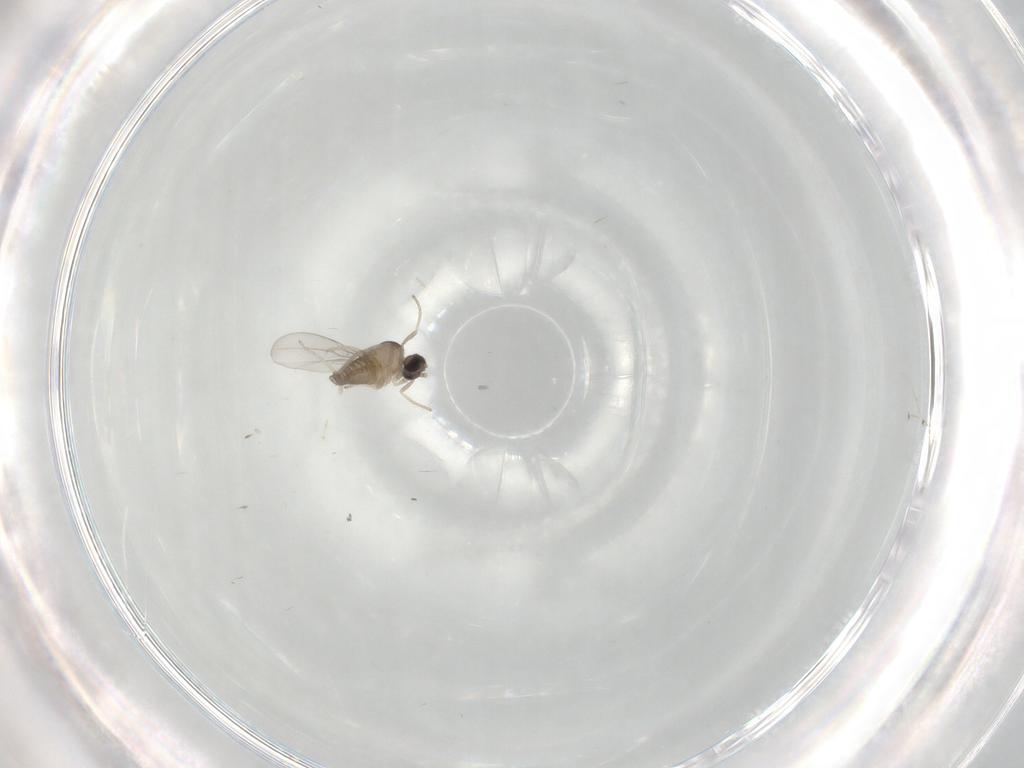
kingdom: Animalia
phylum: Arthropoda
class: Insecta
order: Diptera
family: Cecidomyiidae
